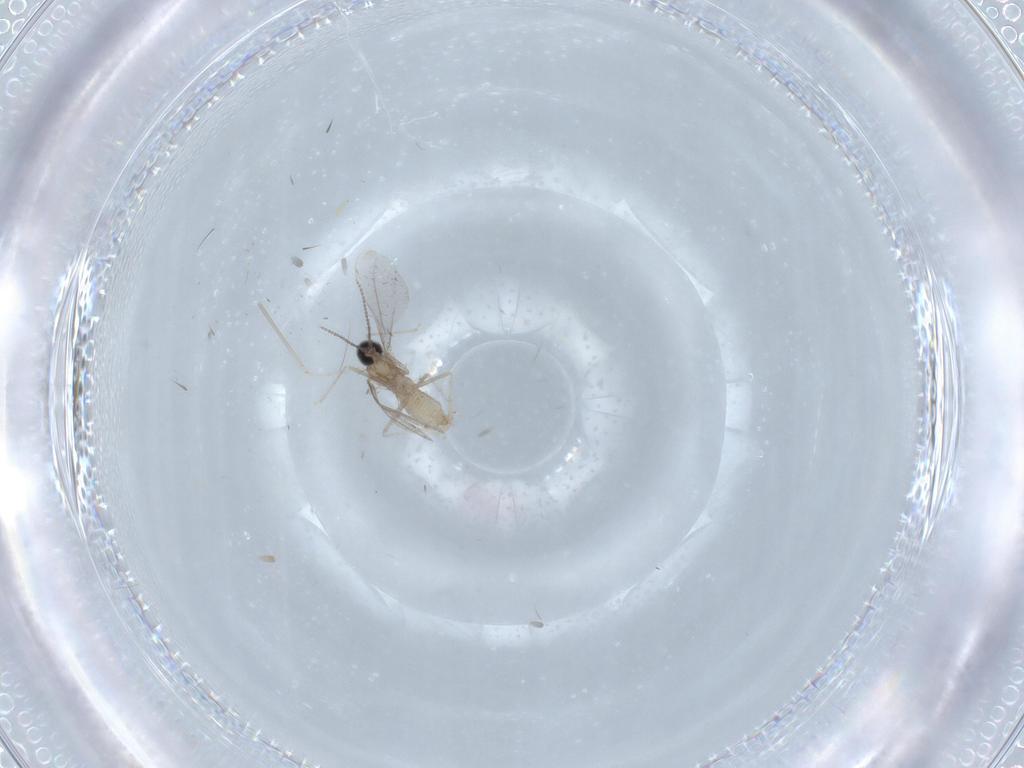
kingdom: Animalia
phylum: Arthropoda
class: Insecta
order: Diptera
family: Cecidomyiidae
